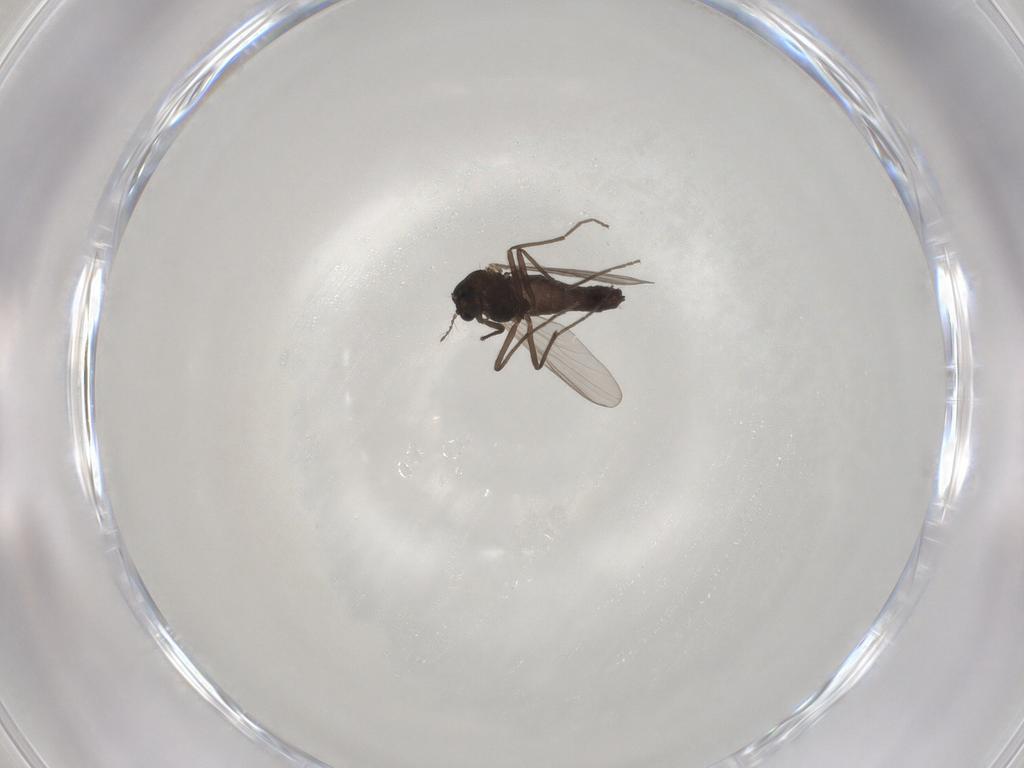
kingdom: Animalia
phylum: Arthropoda
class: Insecta
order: Diptera
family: Chironomidae
